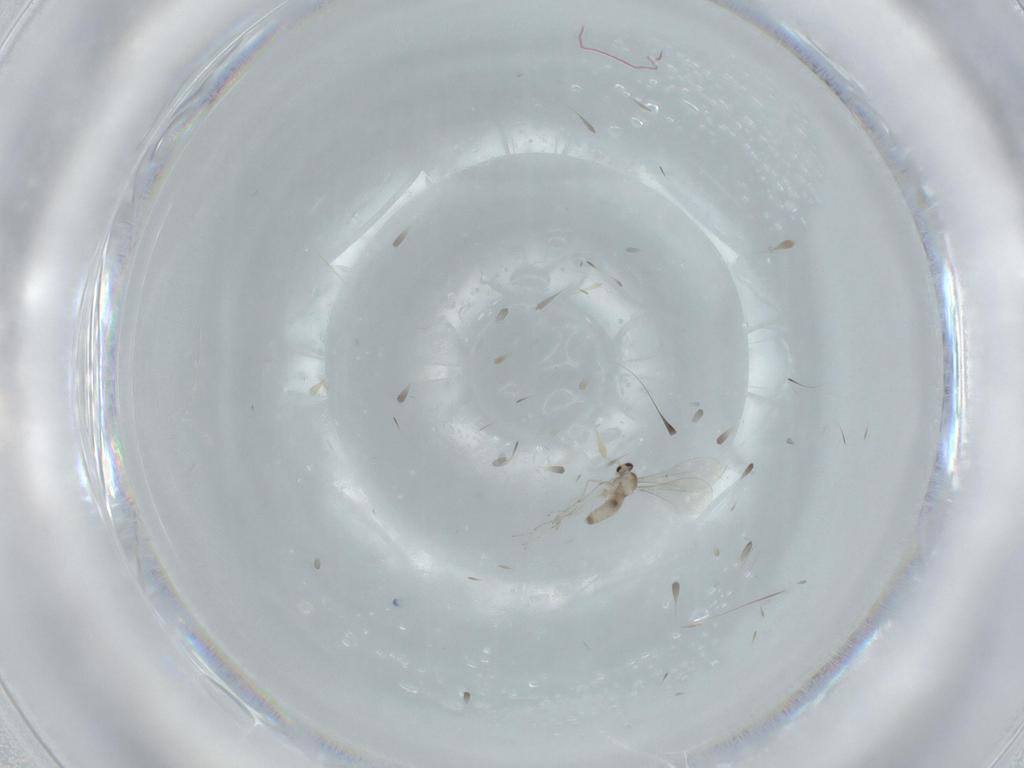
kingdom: Animalia
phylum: Arthropoda
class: Insecta
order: Diptera
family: Cecidomyiidae
